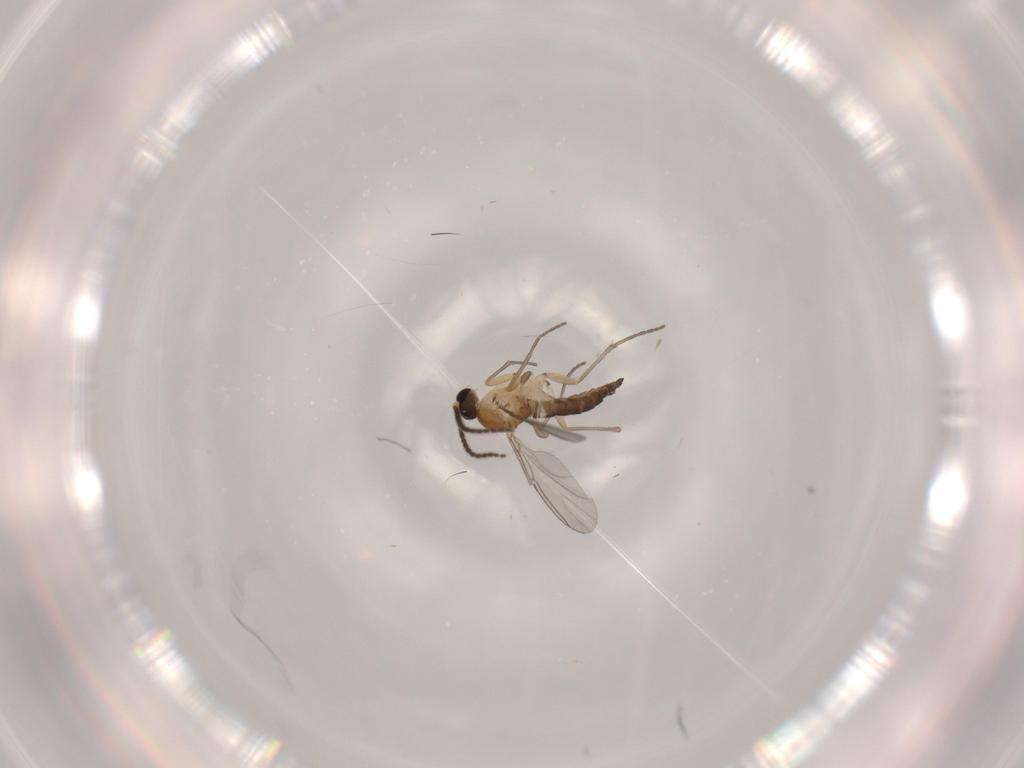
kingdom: Animalia
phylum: Arthropoda
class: Insecta
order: Diptera
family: Sciaridae
